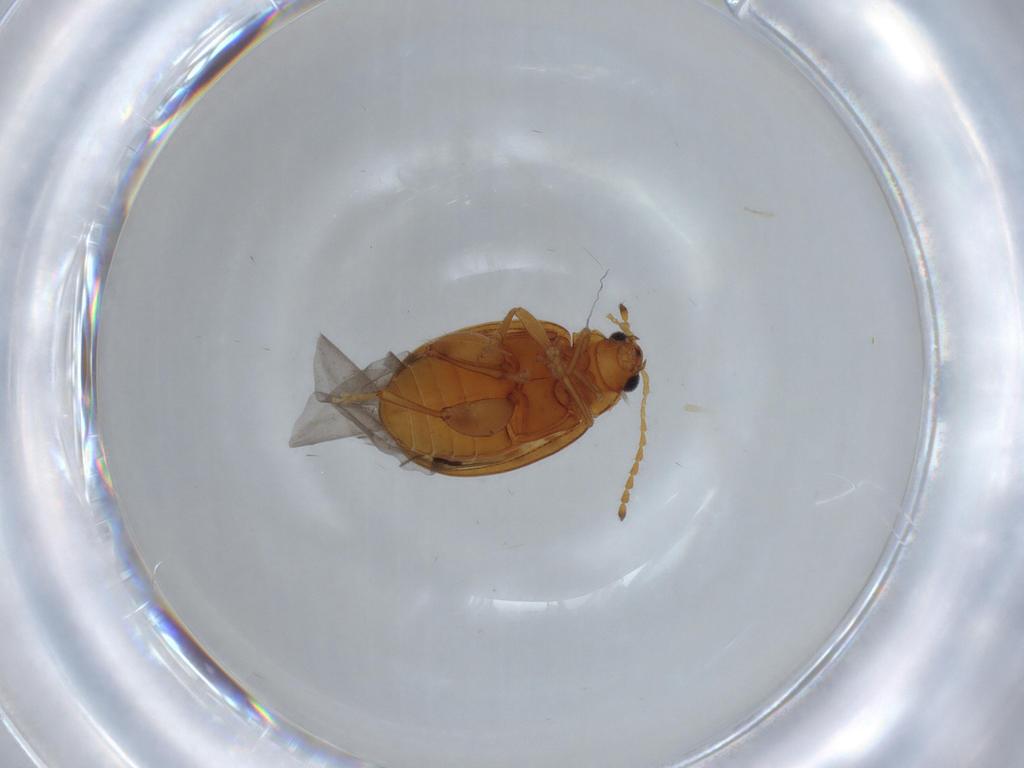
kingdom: Animalia
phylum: Arthropoda
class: Insecta
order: Coleoptera
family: Chrysomelidae
